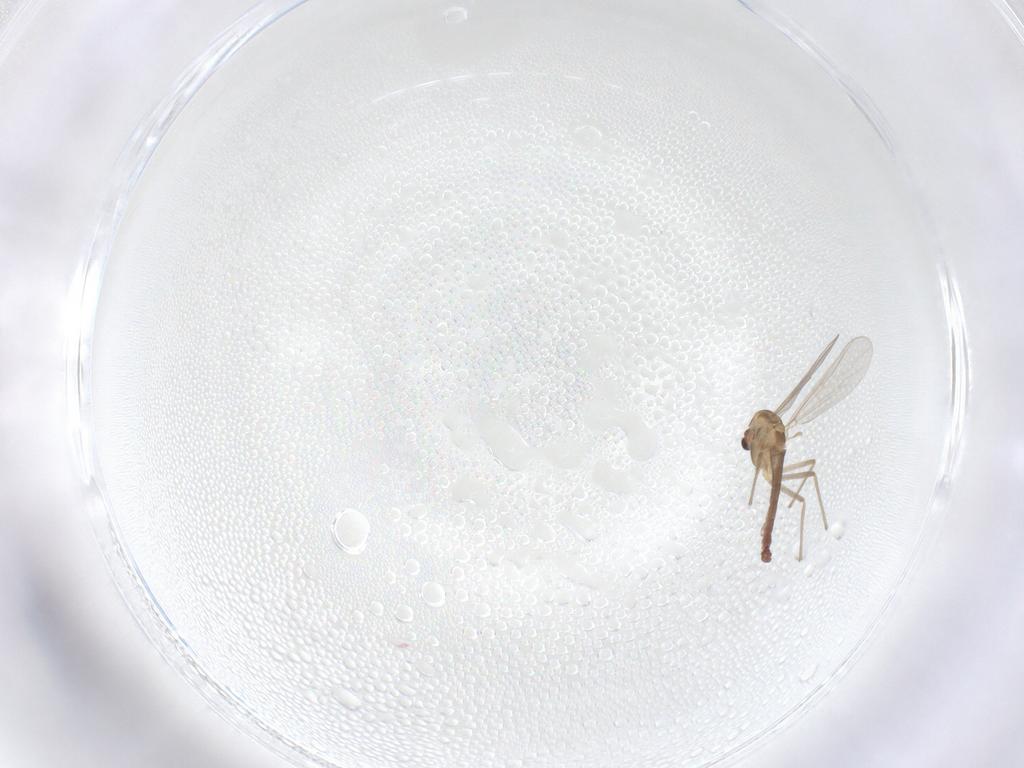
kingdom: Animalia
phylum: Arthropoda
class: Insecta
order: Diptera
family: Chironomidae
